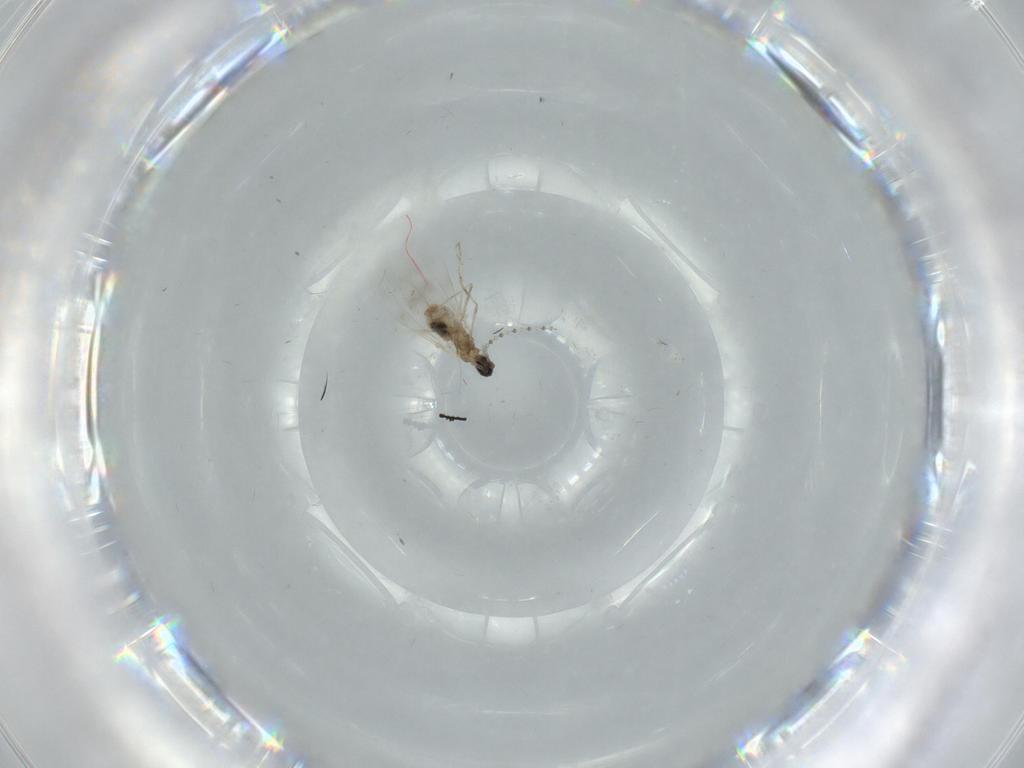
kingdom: Animalia
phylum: Arthropoda
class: Insecta
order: Diptera
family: Cecidomyiidae
